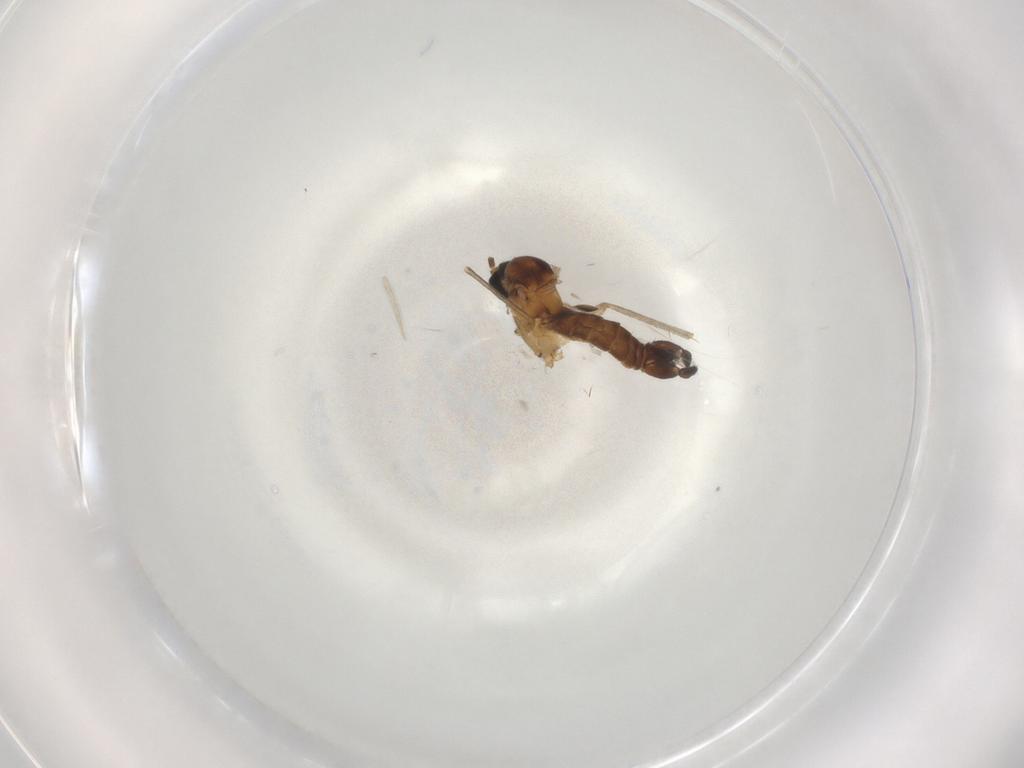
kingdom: Animalia
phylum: Arthropoda
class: Insecta
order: Diptera
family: Sciaridae
